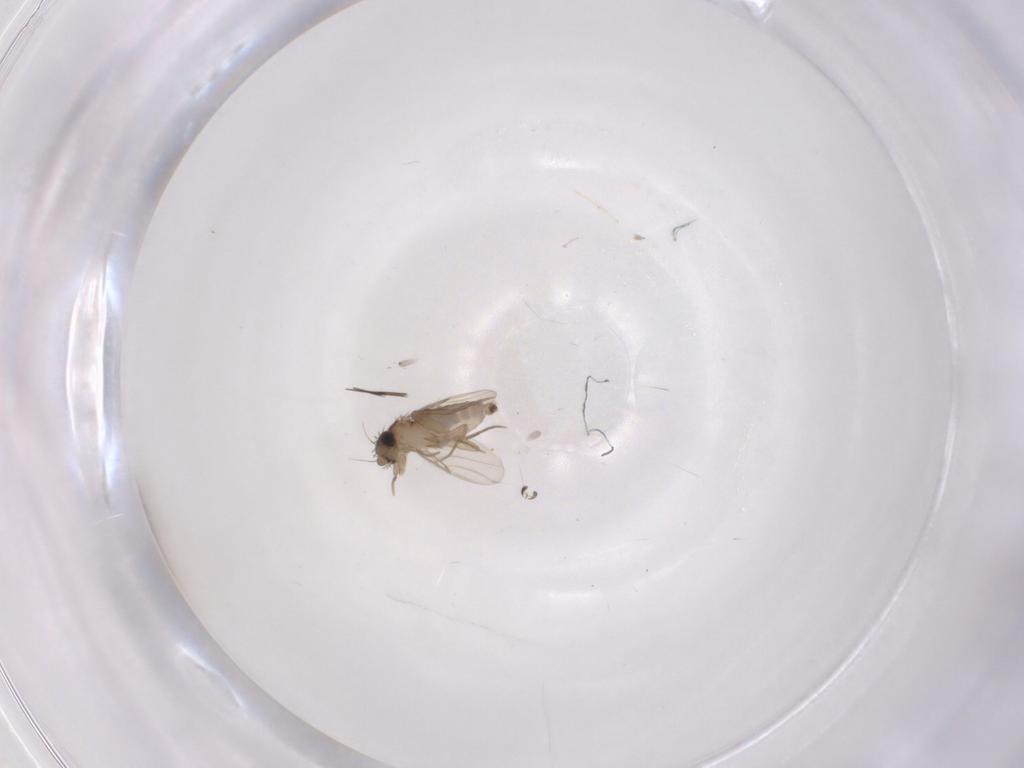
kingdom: Animalia
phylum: Arthropoda
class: Insecta
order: Diptera
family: Phoridae
